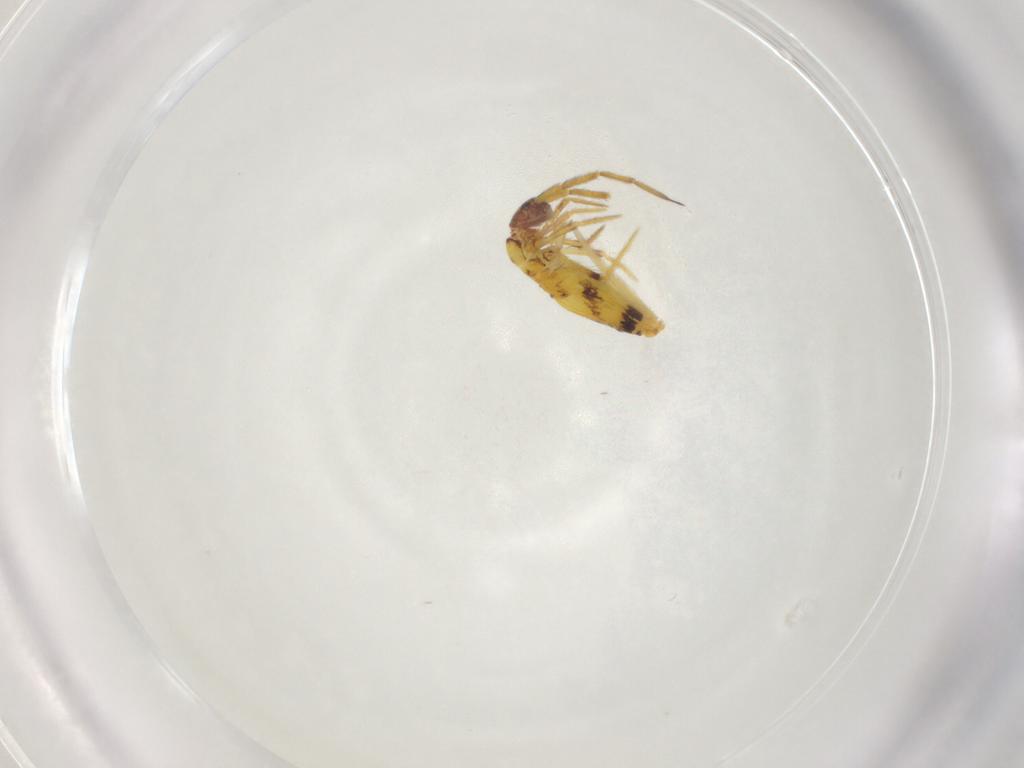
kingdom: Animalia
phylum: Arthropoda
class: Collembola
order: Entomobryomorpha
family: Entomobryidae
